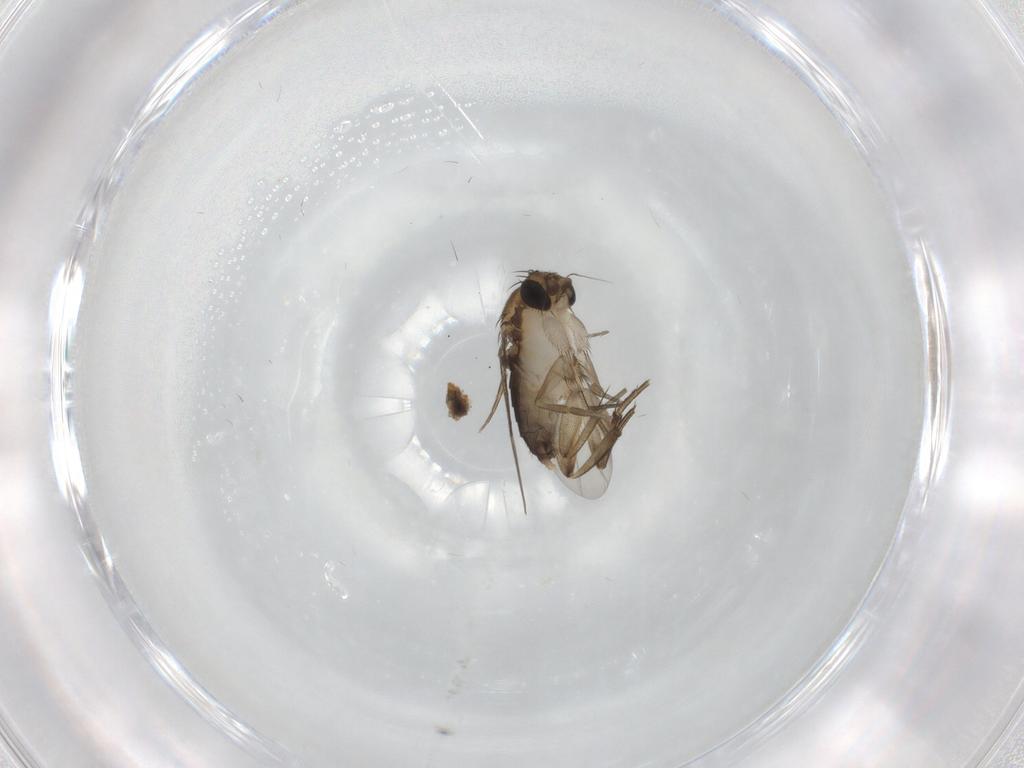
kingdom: Animalia
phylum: Arthropoda
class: Insecta
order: Diptera
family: Phoridae
